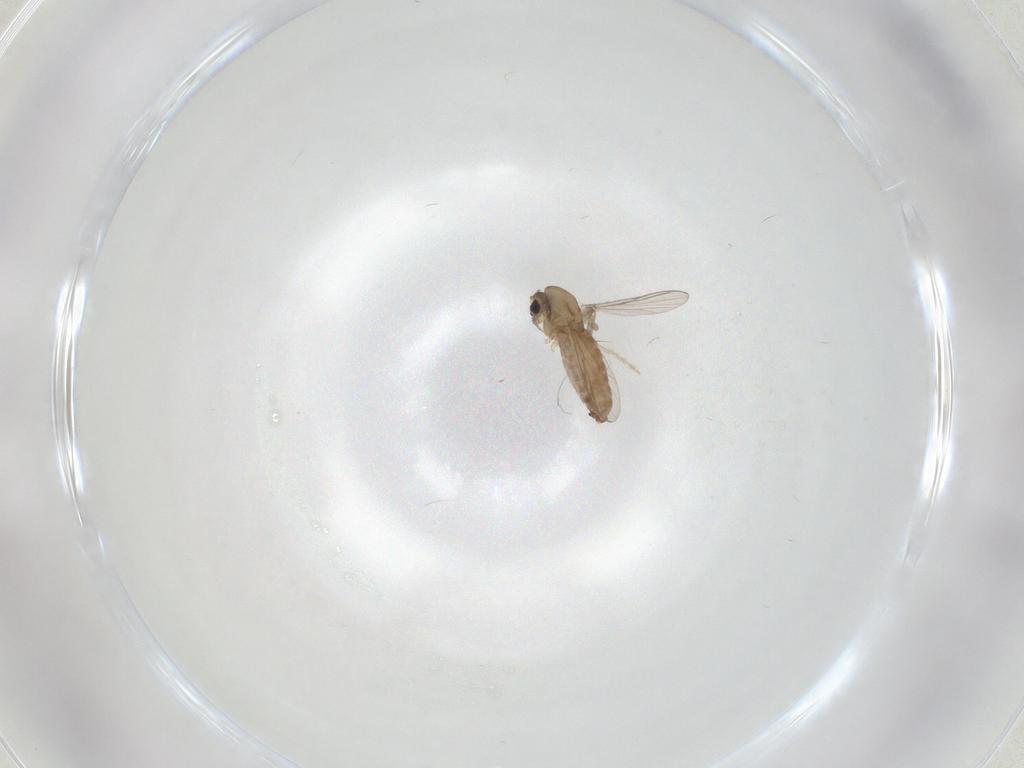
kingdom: Animalia
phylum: Arthropoda
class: Insecta
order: Diptera
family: Chironomidae
